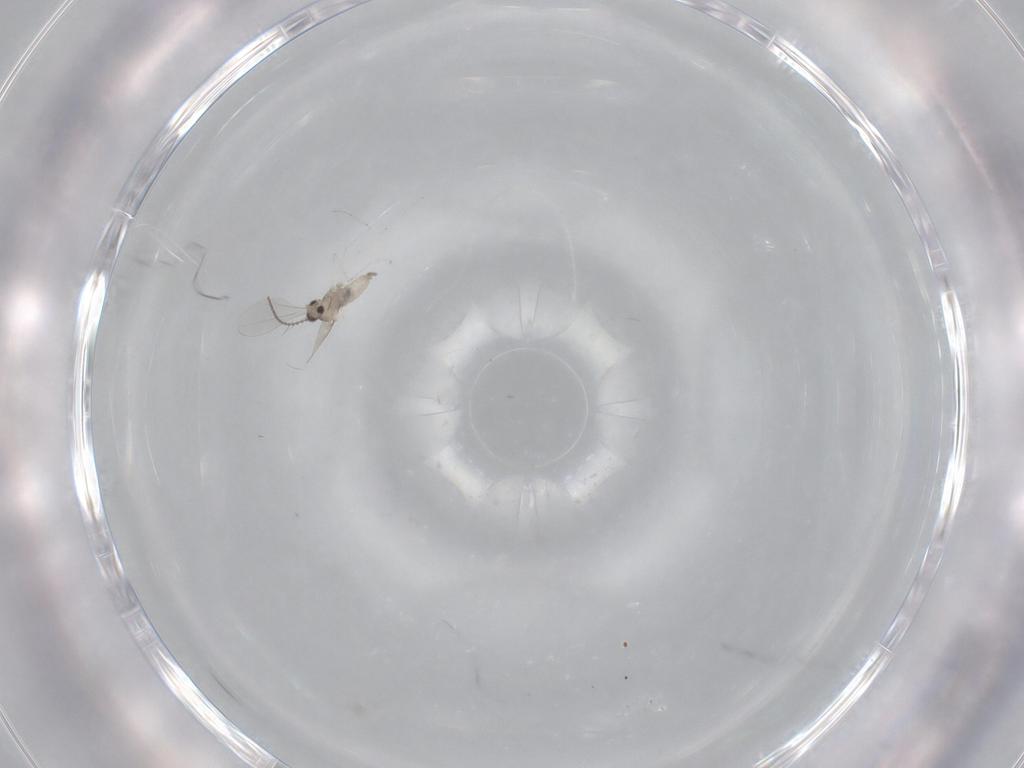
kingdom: Animalia
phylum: Arthropoda
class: Insecta
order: Diptera
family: Cecidomyiidae
